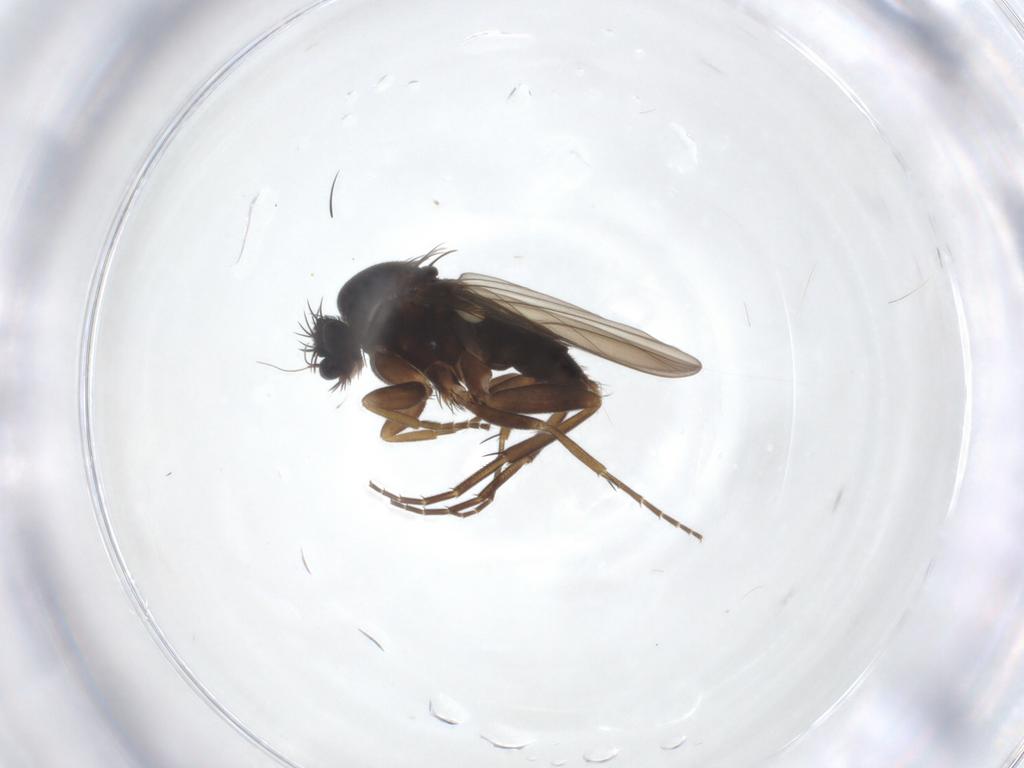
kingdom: Animalia
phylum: Arthropoda
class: Insecta
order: Diptera
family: Phoridae
